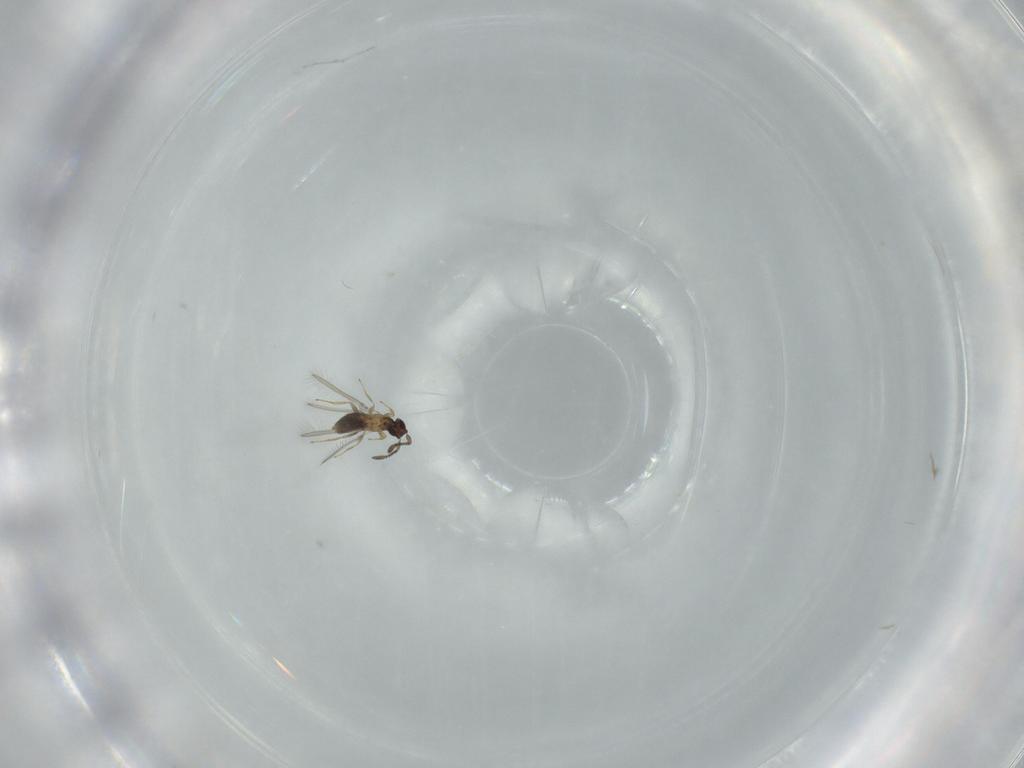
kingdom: Animalia
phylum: Arthropoda
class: Insecta
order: Hymenoptera
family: Mymaridae
